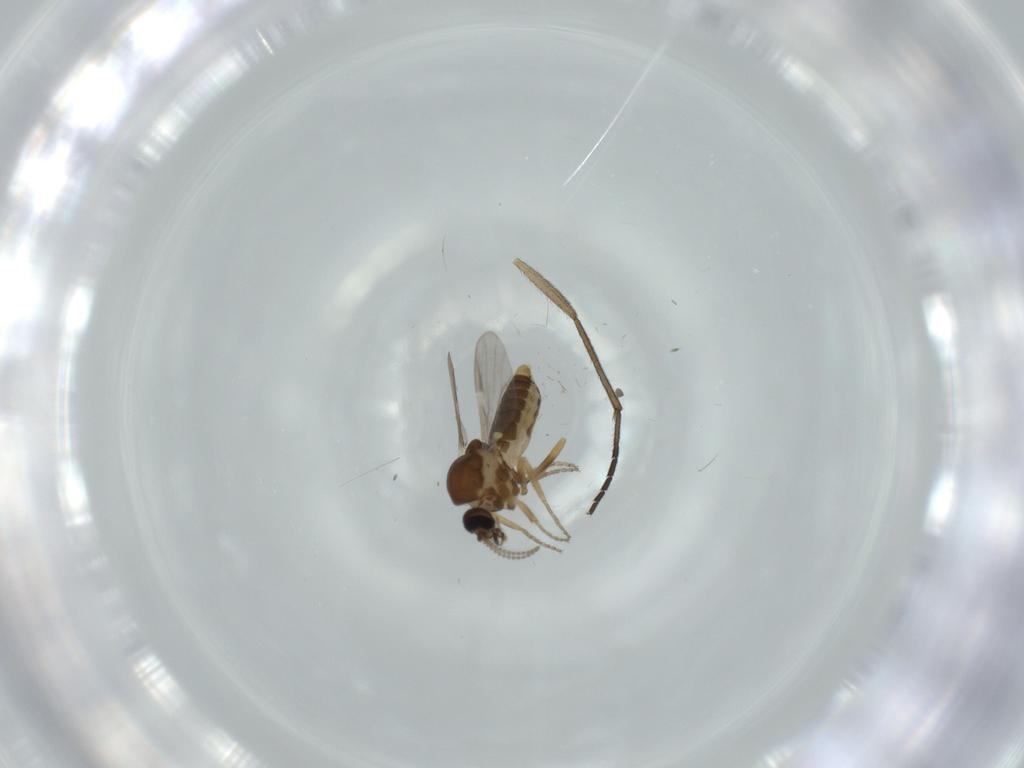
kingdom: Animalia
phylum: Arthropoda
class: Insecta
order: Diptera
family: Sciaridae
